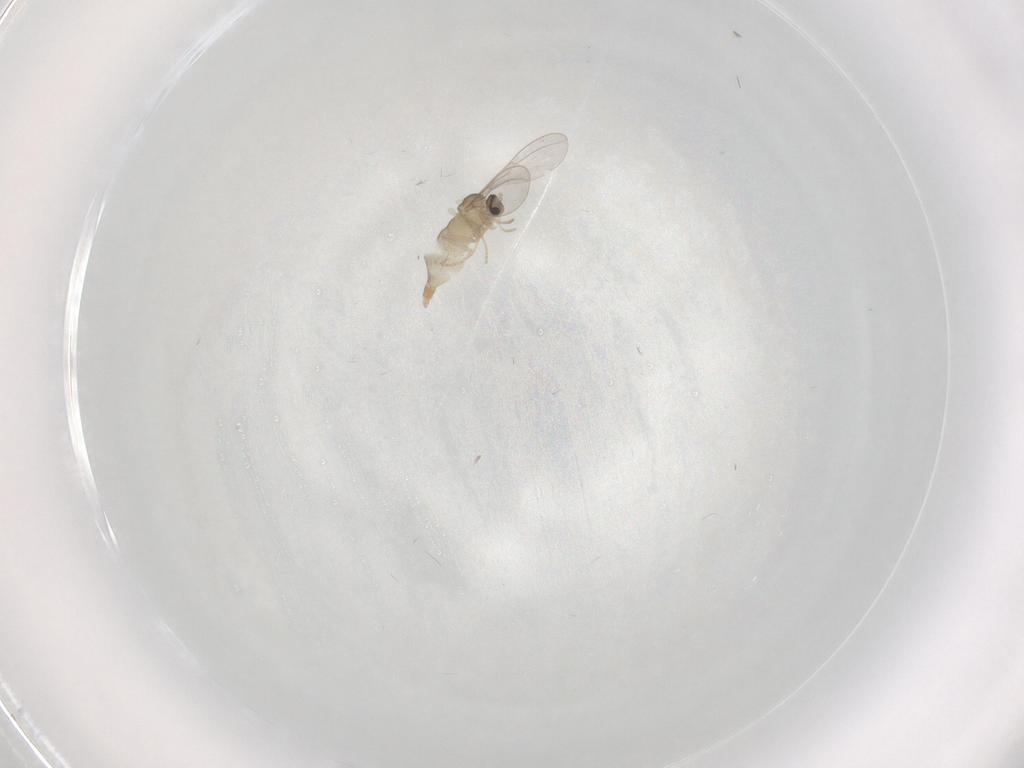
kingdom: Animalia
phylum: Arthropoda
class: Insecta
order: Diptera
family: Cecidomyiidae
